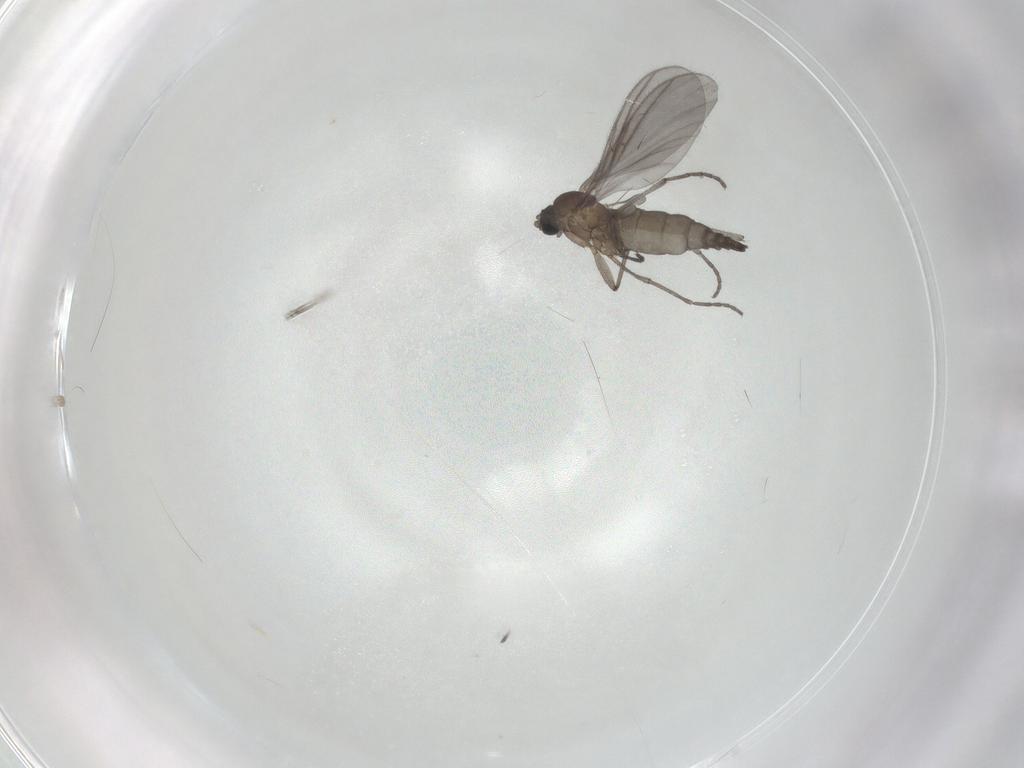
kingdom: Animalia
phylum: Arthropoda
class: Insecta
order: Diptera
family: Sciaridae
